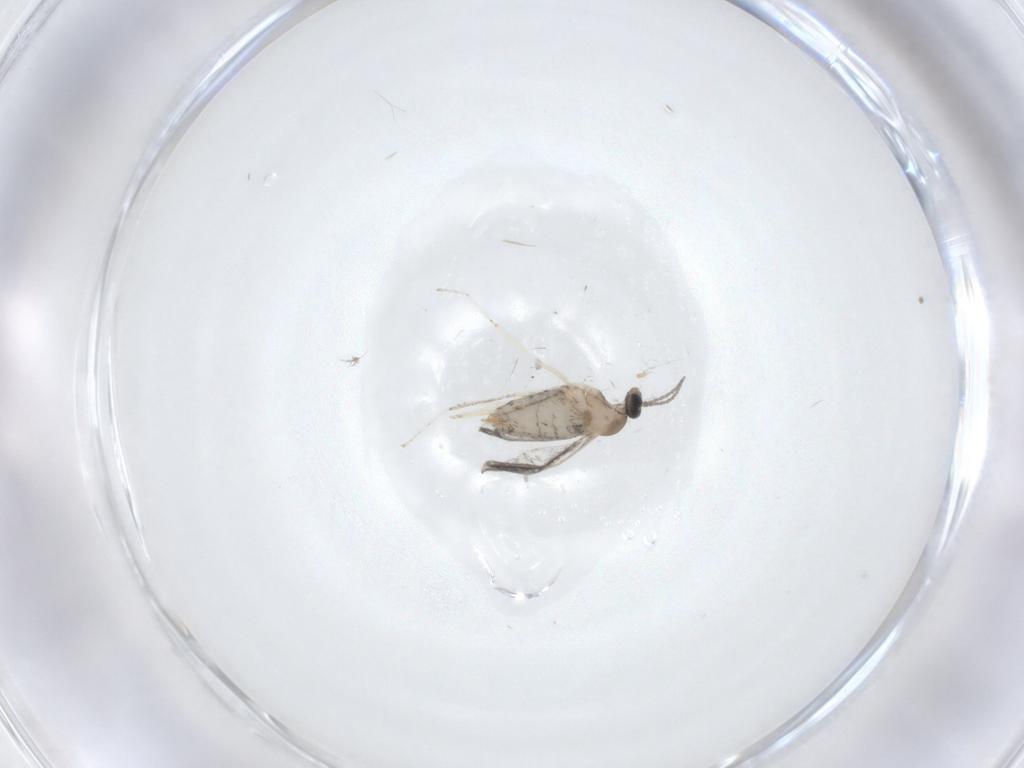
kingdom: Animalia
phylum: Arthropoda
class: Insecta
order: Diptera
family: Cecidomyiidae
